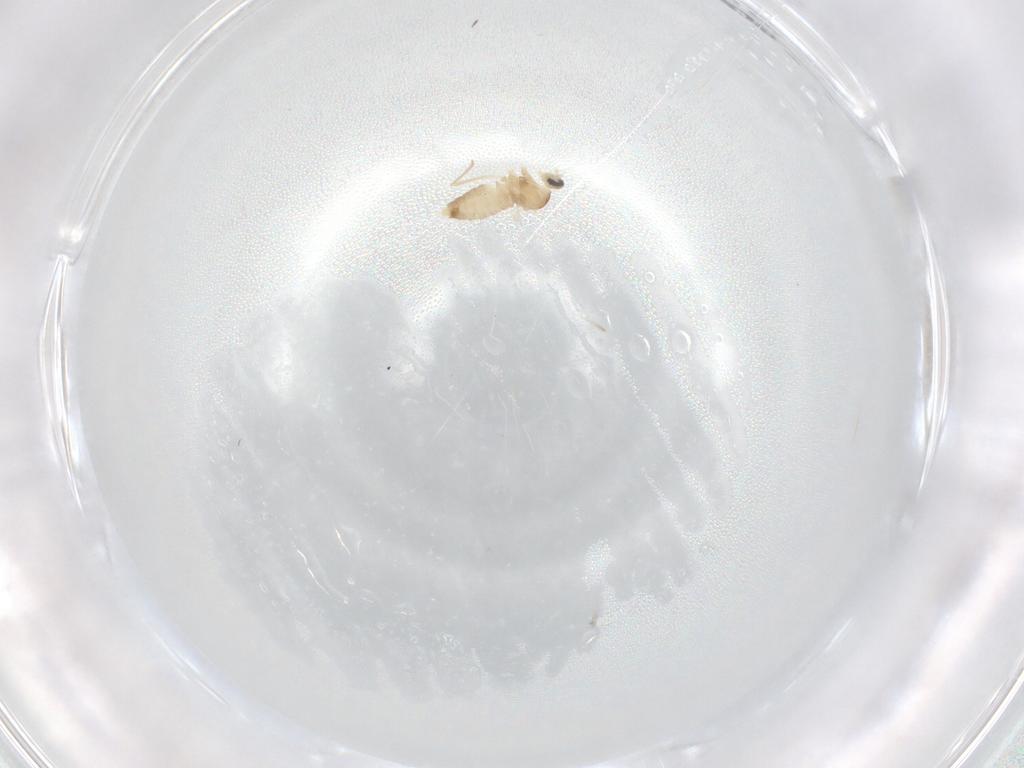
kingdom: Animalia
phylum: Arthropoda
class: Insecta
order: Diptera
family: Cecidomyiidae
